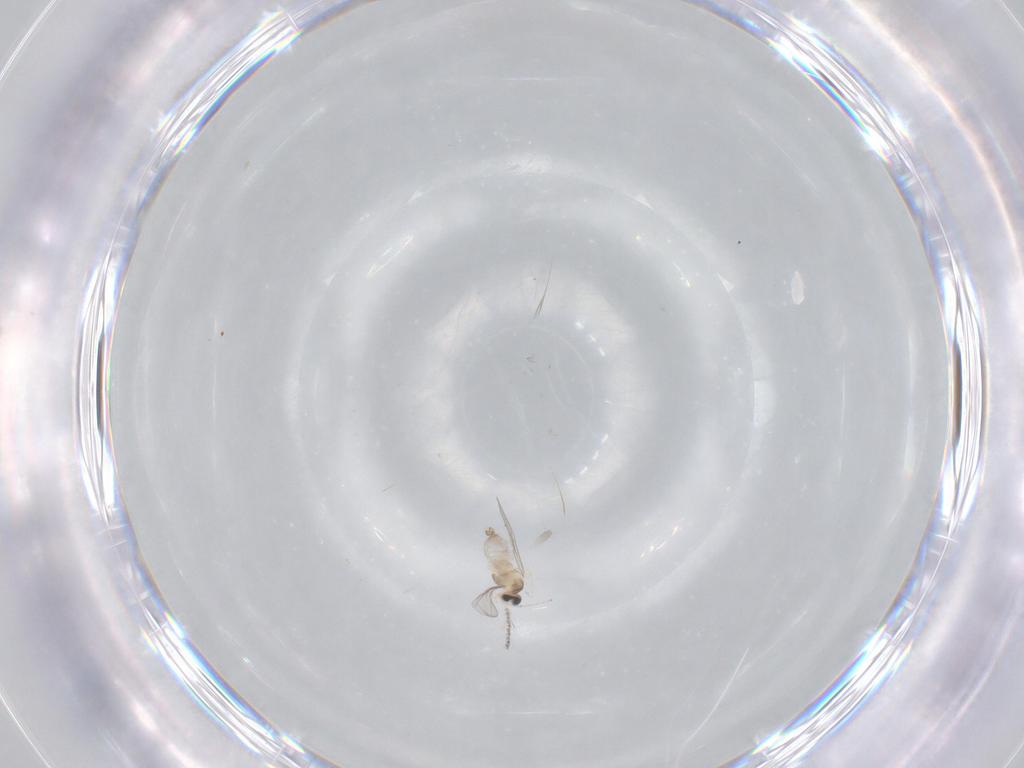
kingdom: Animalia
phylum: Arthropoda
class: Insecta
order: Diptera
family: Cecidomyiidae
